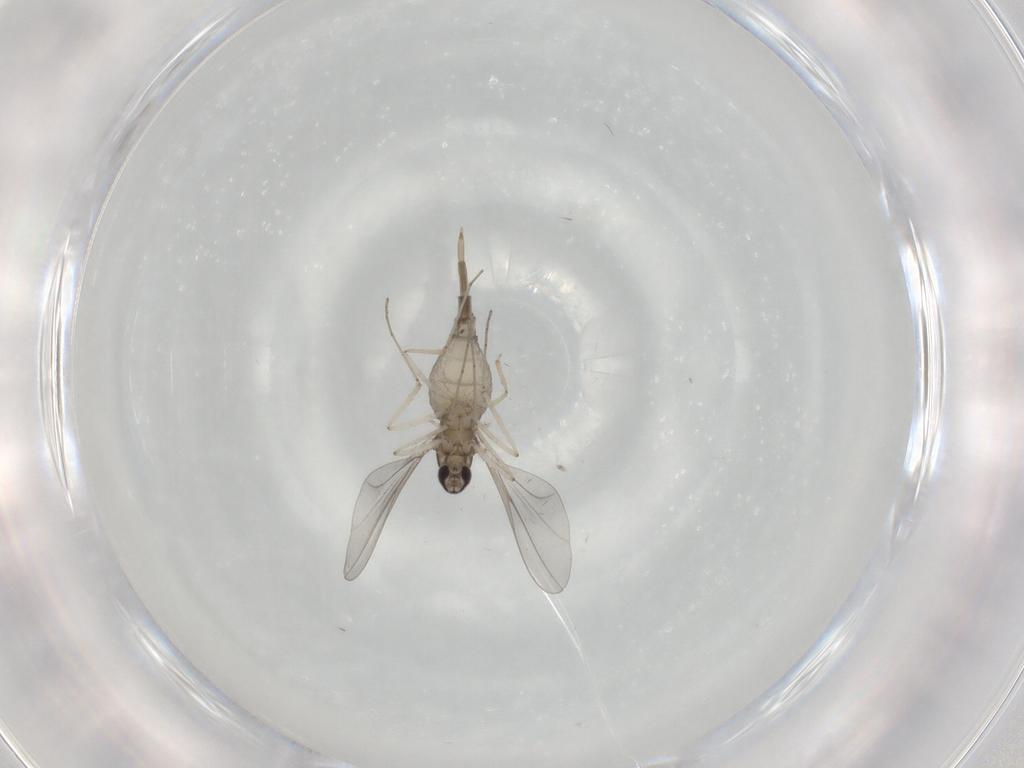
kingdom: Animalia
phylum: Arthropoda
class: Insecta
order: Diptera
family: Cecidomyiidae
